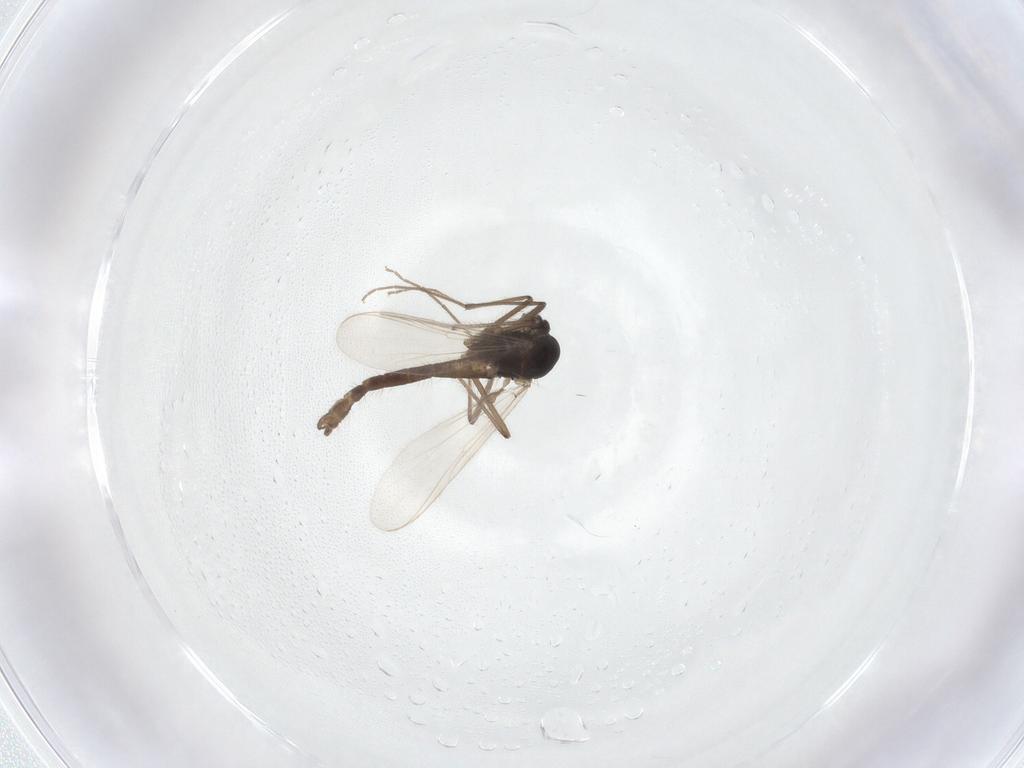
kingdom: Animalia
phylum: Arthropoda
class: Insecta
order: Diptera
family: Chironomidae
